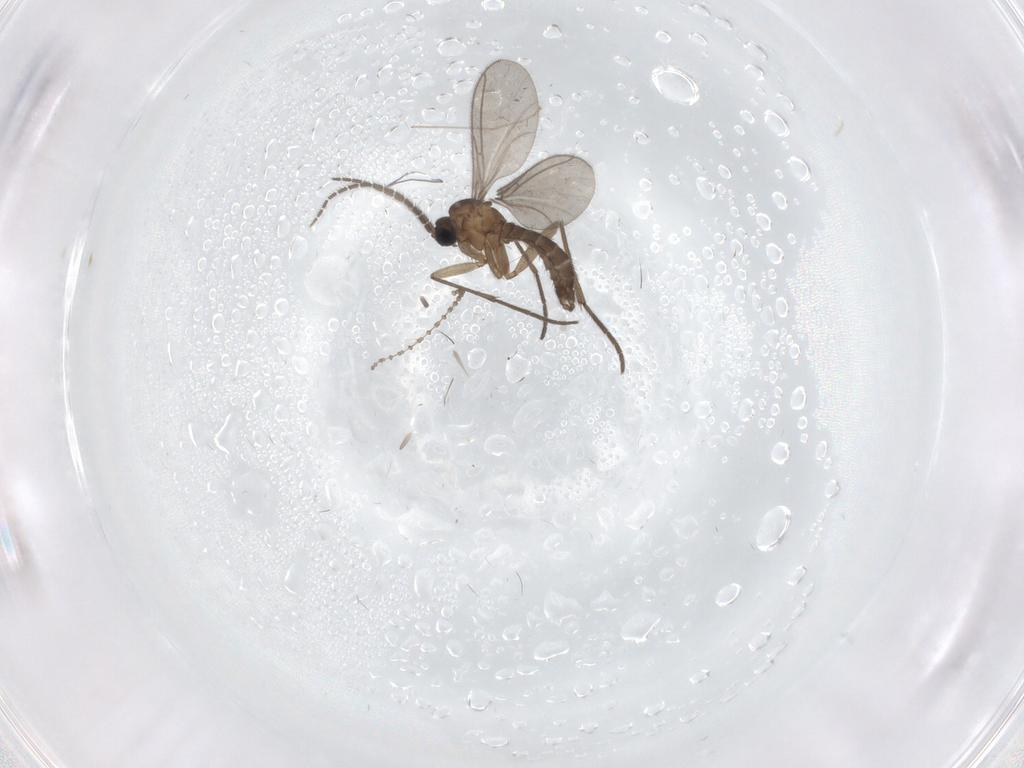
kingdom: Animalia
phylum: Arthropoda
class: Insecta
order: Diptera
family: Sciaridae
